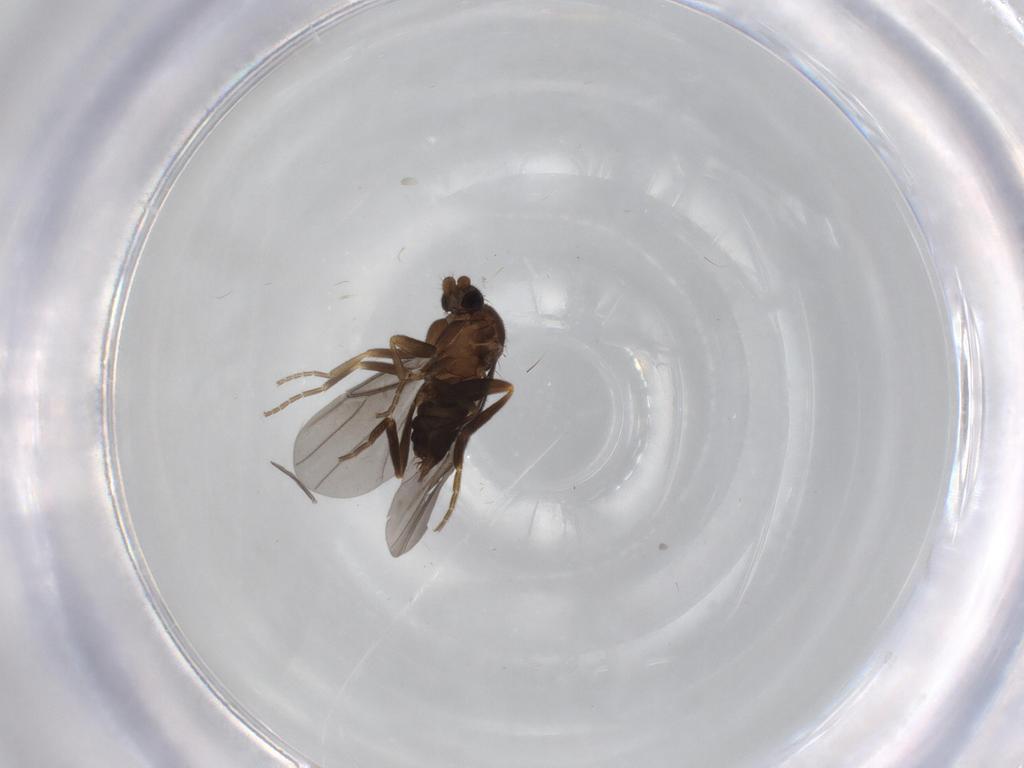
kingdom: Animalia
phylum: Arthropoda
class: Insecta
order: Diptera
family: Phoridae
